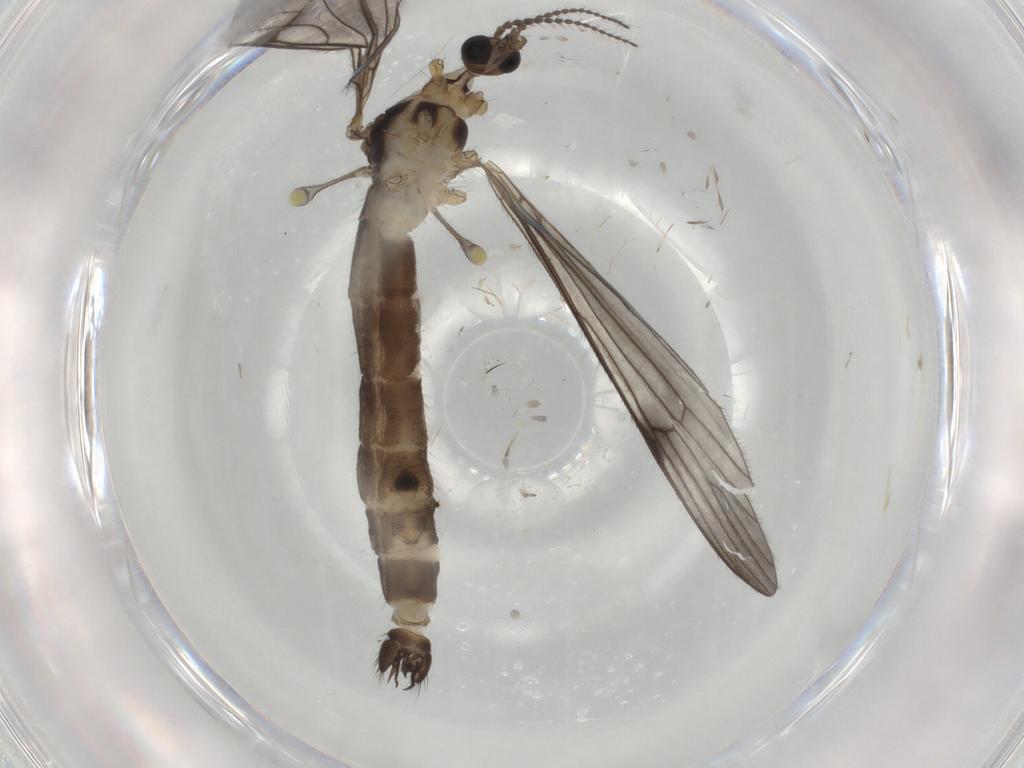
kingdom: Animalia
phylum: Arthropoda
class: Insecta
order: Diptera
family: Limoniidae
